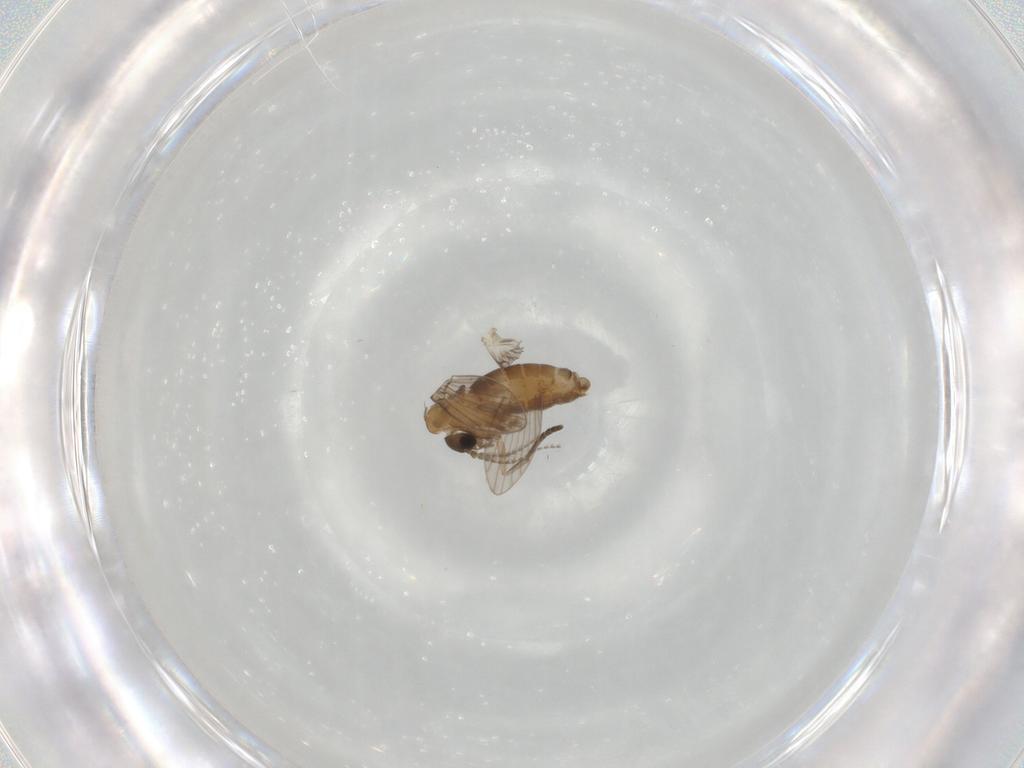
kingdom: Animalia
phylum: Arthropoda
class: Insecta
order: Diptera
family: Psychodidae
